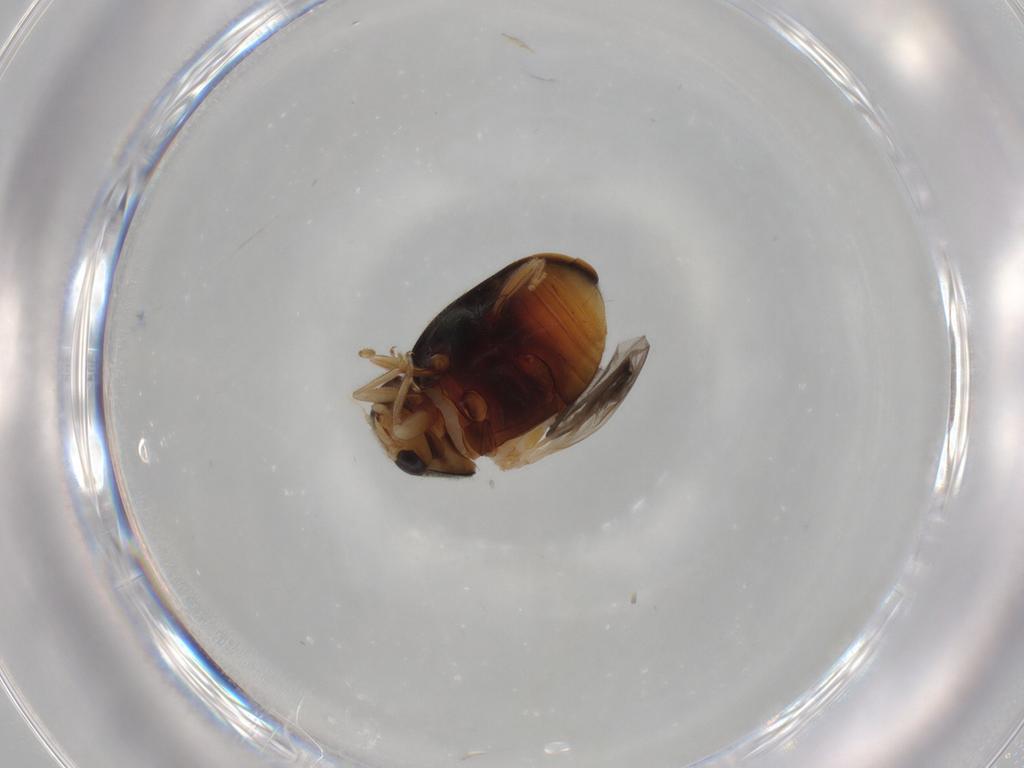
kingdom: Animalia
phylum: Arthropoda
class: Insecta
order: Coleoptera
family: Coccinellidae
